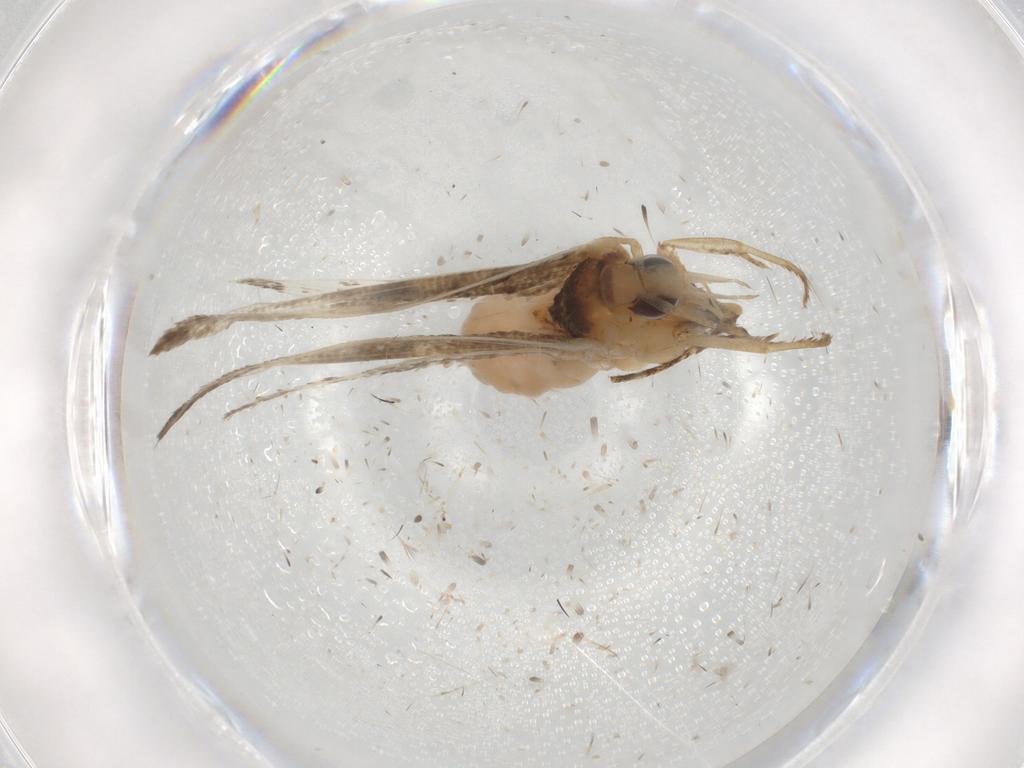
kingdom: Animalia
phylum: Arthropoda
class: Insecta
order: Lepidoptera
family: Ypsolophidae
